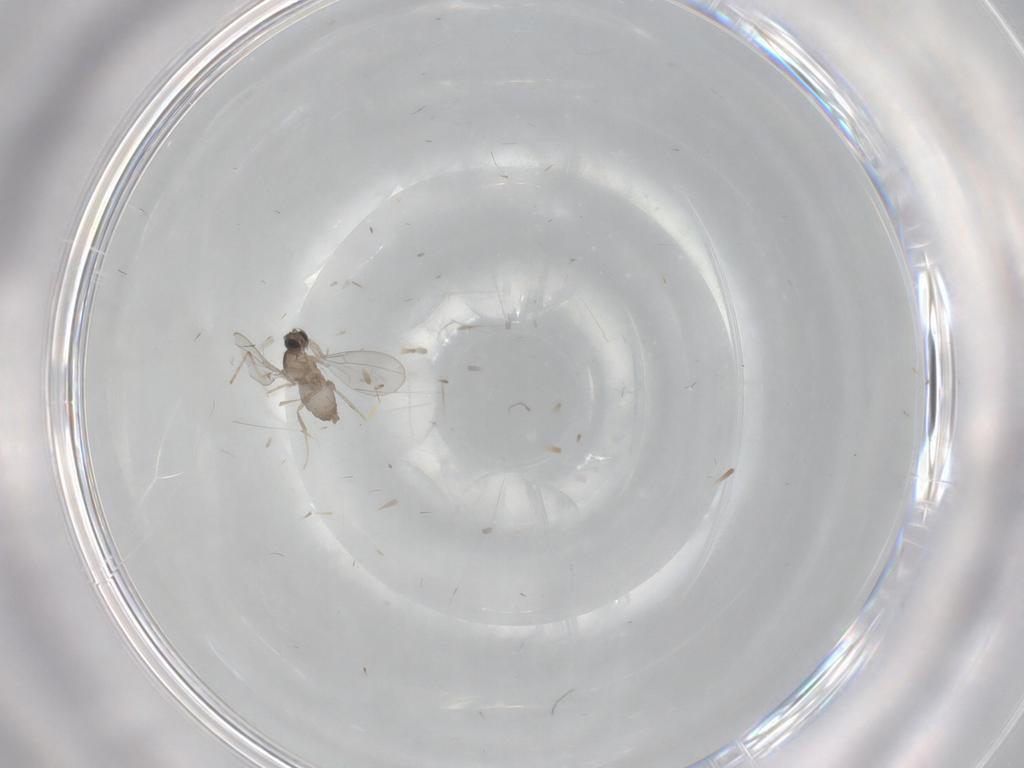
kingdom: Animalia
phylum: Arthropoda
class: Insecta
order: Diptera
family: Cecidomyiidae
